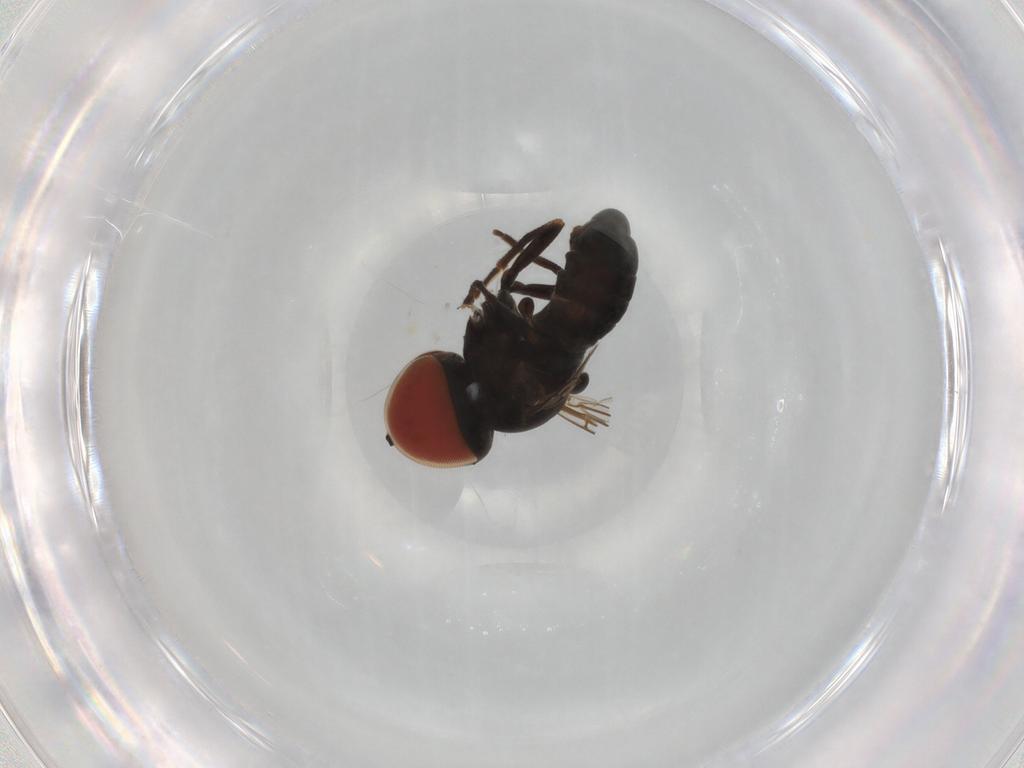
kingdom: Animalia
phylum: Arthropoda
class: Insecta
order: Diptera
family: Pipunculidae
